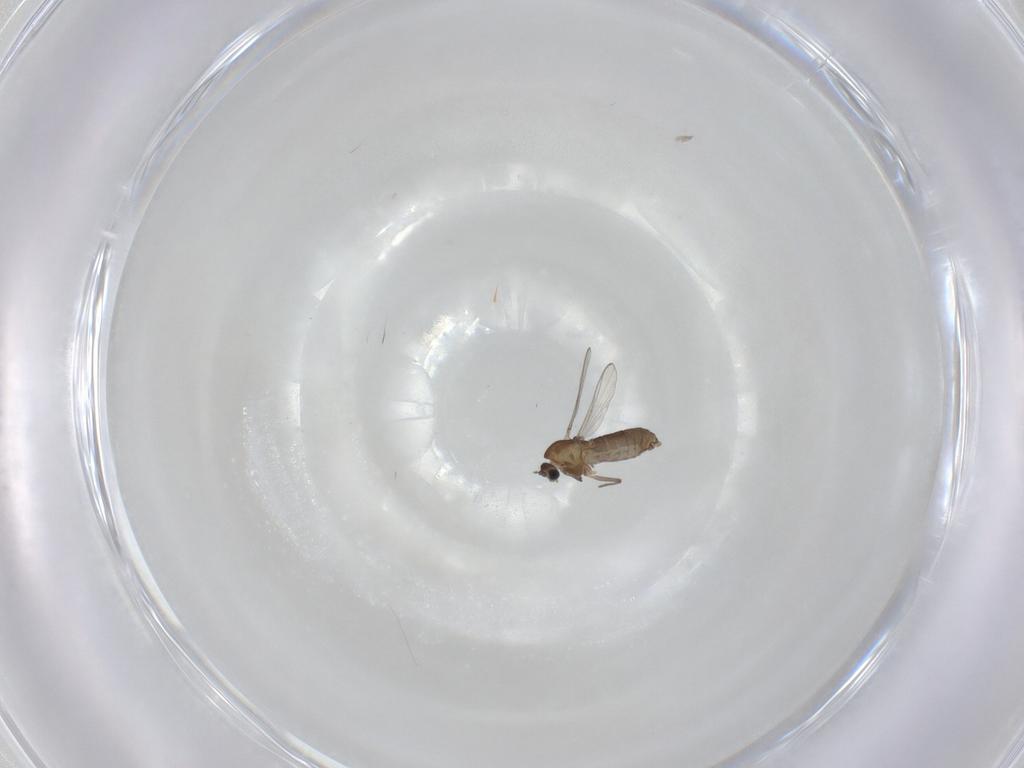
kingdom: Animalia
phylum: Arthropoda
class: Insecta
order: Diptera
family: Chironomidae
